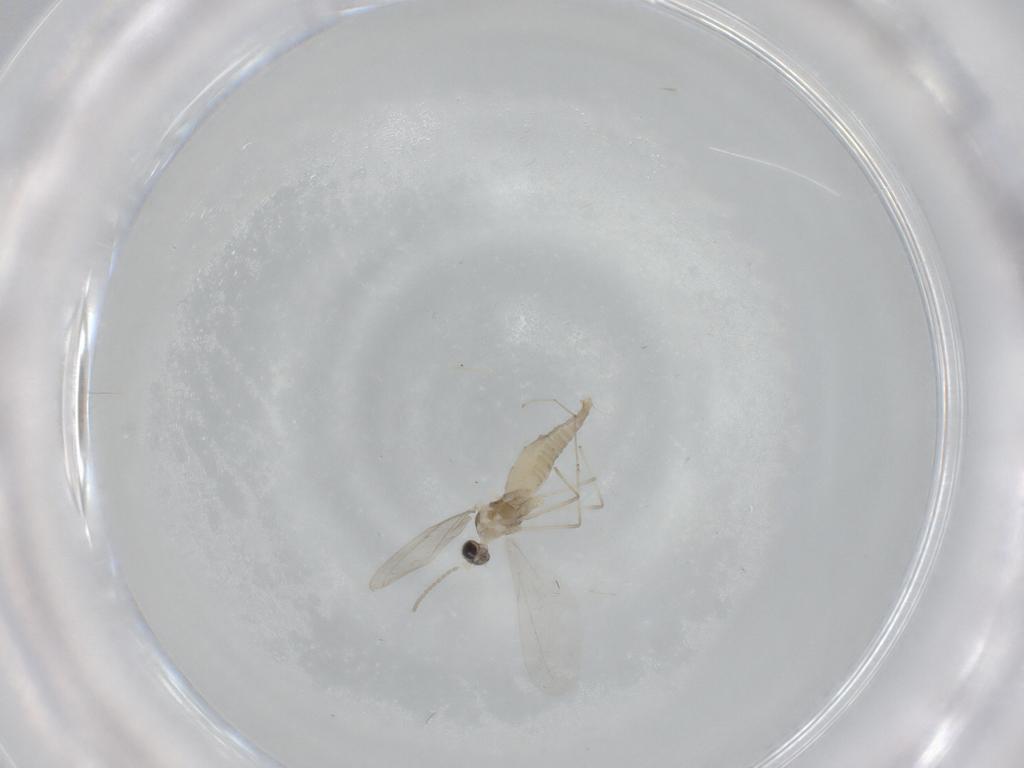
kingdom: Animalia
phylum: Arthropoda
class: Insecta
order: Diptera
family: Cecidomyiidae
